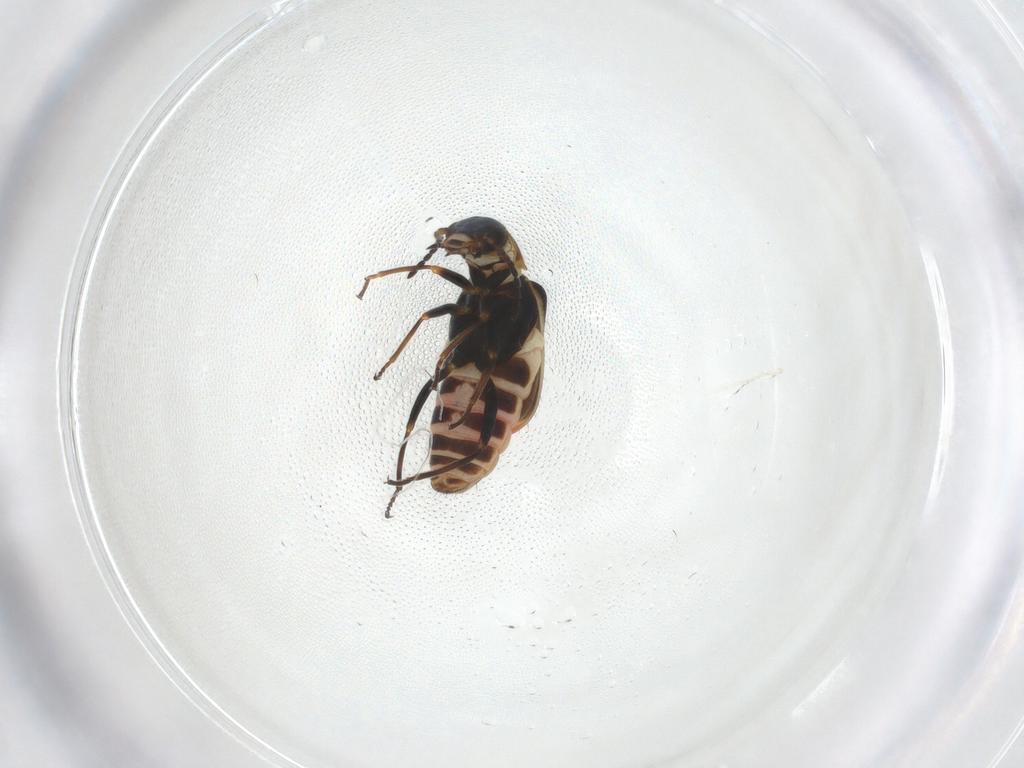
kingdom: Animalia
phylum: Arthropoda
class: Insecta
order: Coleoptera
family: Melyridae
